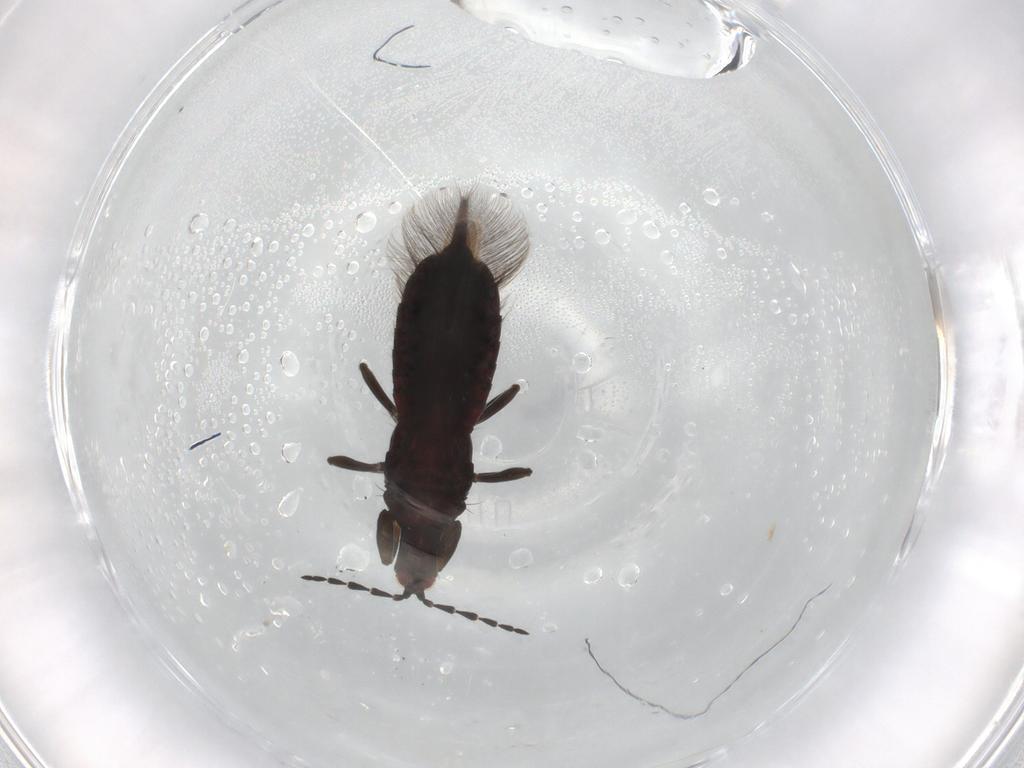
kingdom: Animalia
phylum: Arthropoda
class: Insecta
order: Thysanoptera
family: Phlaeothripidae
